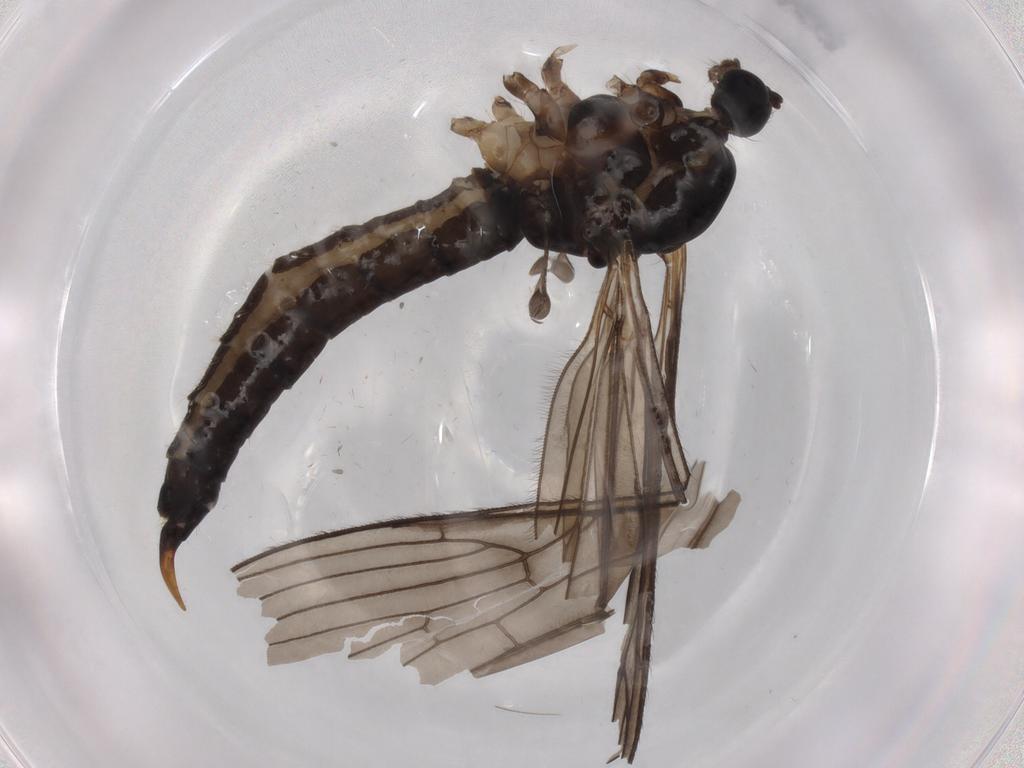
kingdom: Animalia
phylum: Arthropoda
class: Insecta
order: Diptera
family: Limoniidae
